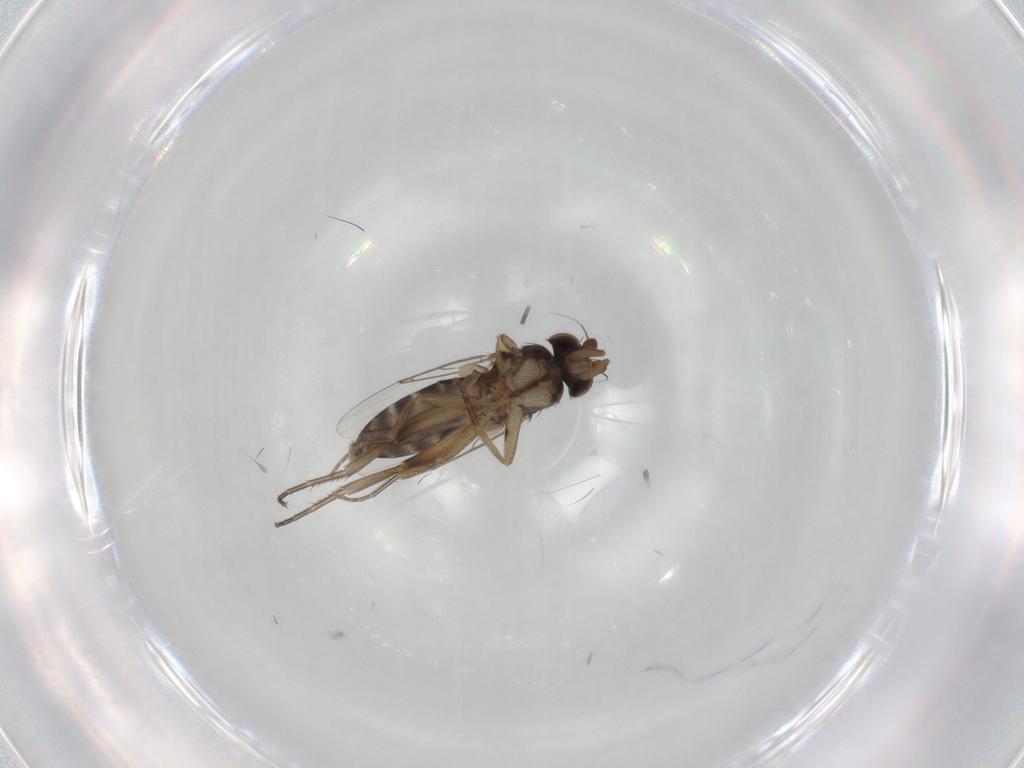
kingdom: Animalia
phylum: Arthropoda
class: Insecta
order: Diptera
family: Phoridae
